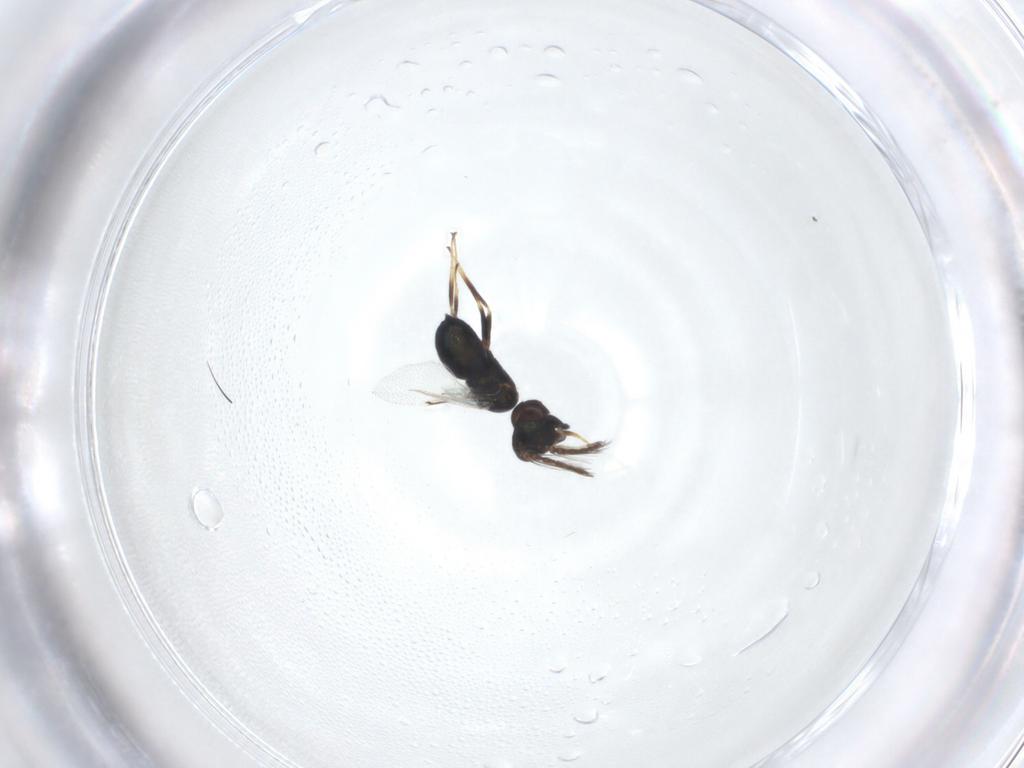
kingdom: Animalia
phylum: Arthropoda
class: Insecta
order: Hymenoptera
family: Eulophidae
